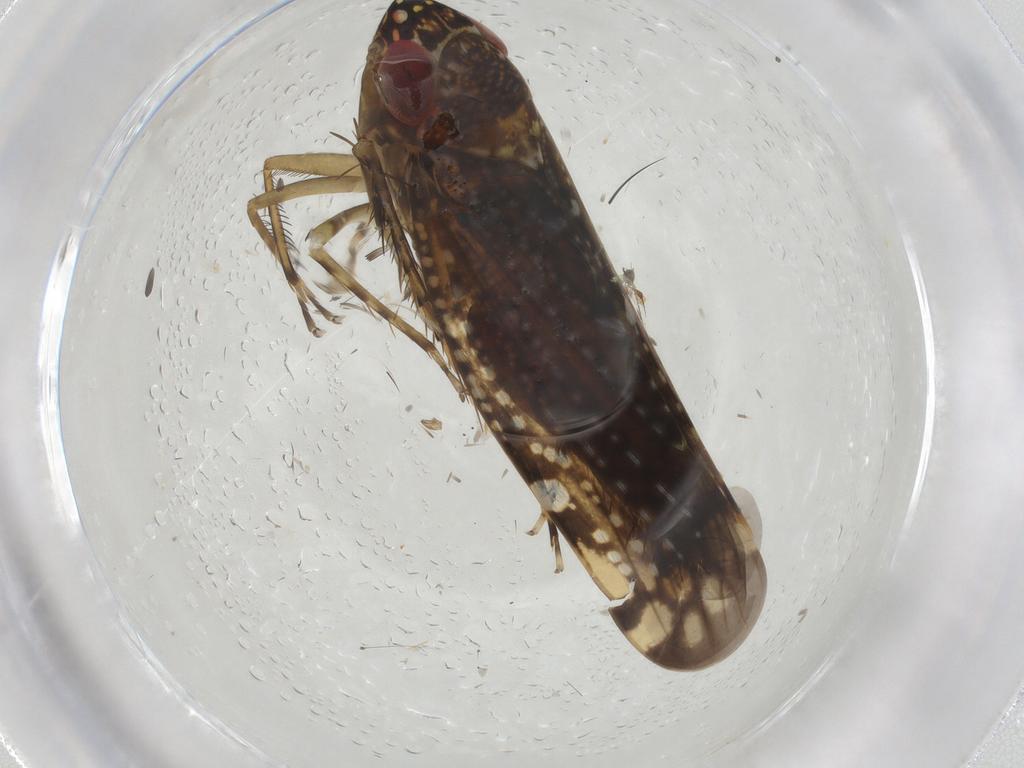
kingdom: Animalia
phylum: Arthropoda
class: Insecta
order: Hemiptera
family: Cicadellidae
